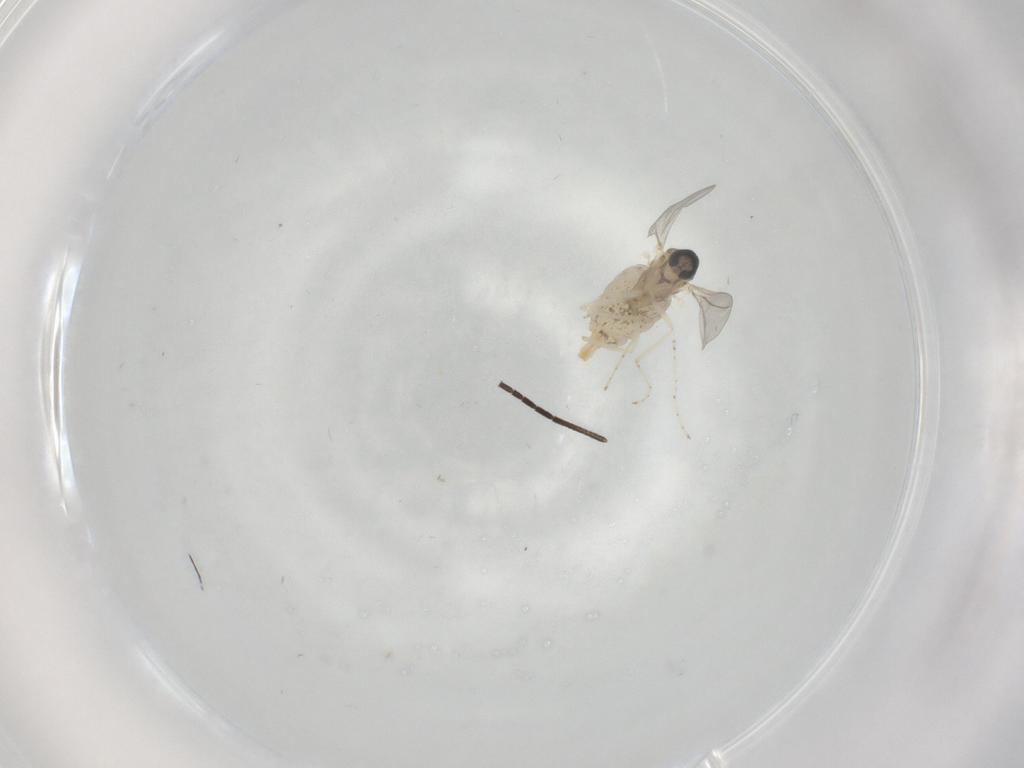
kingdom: Animalia
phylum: Arthropoda
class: Insecta
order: Diptera
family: Cecidomyiidae
